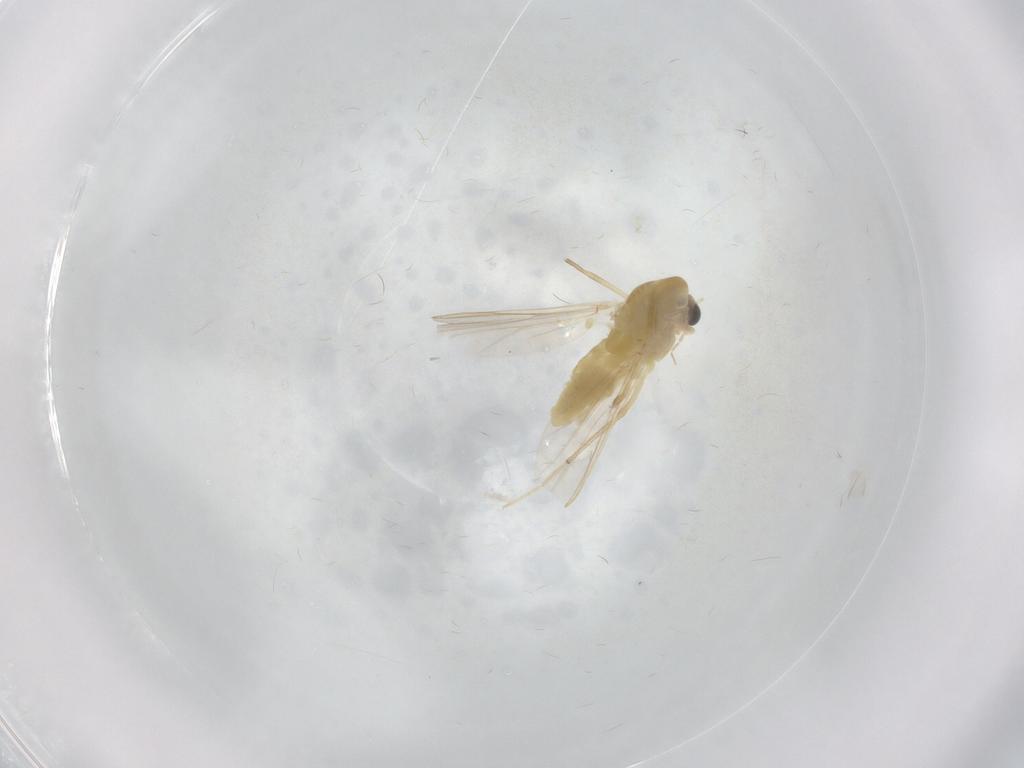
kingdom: Animalia
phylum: Arthropoda
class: Insecta
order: Diptera
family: Chironomidae
